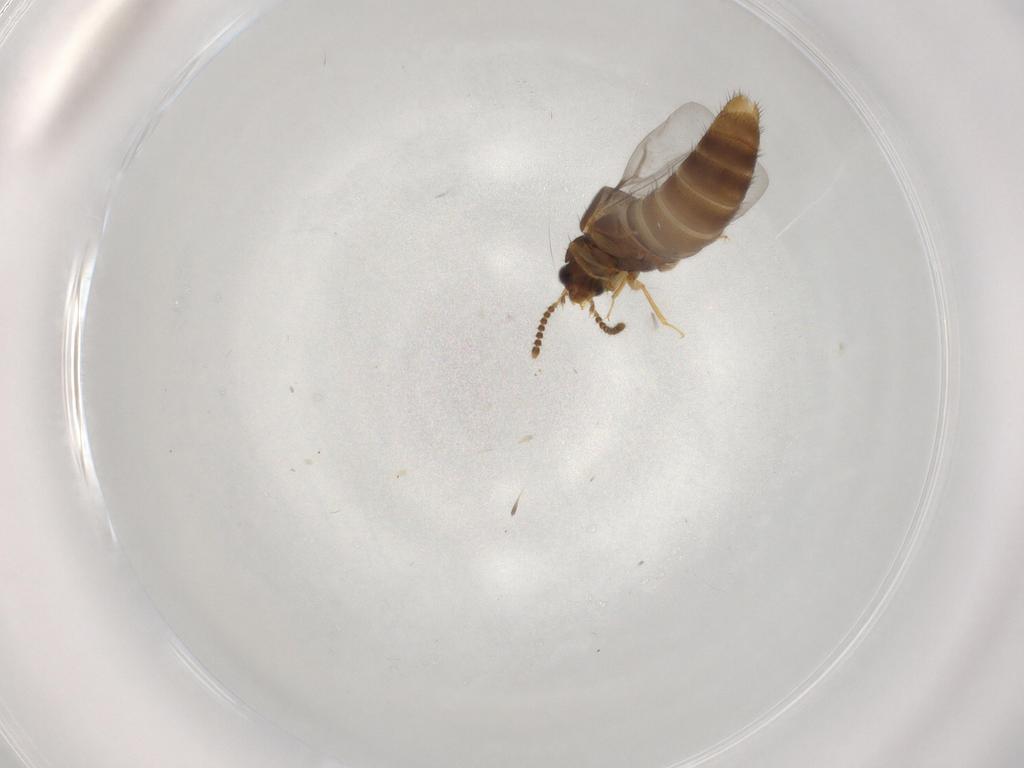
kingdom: Animalia
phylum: Arthropoda
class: Insecta
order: Coleoptera
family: Staphylinidae
